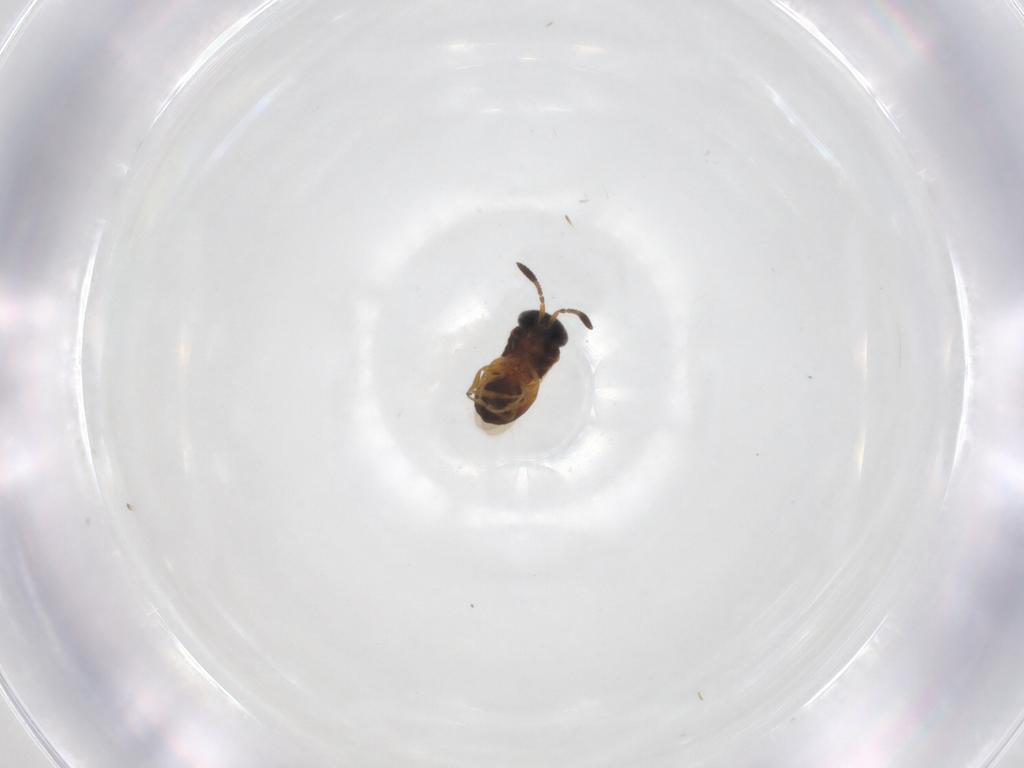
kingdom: Animalia
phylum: Arthropoda
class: Insecta
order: Hymenoptera
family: Scelionidae
